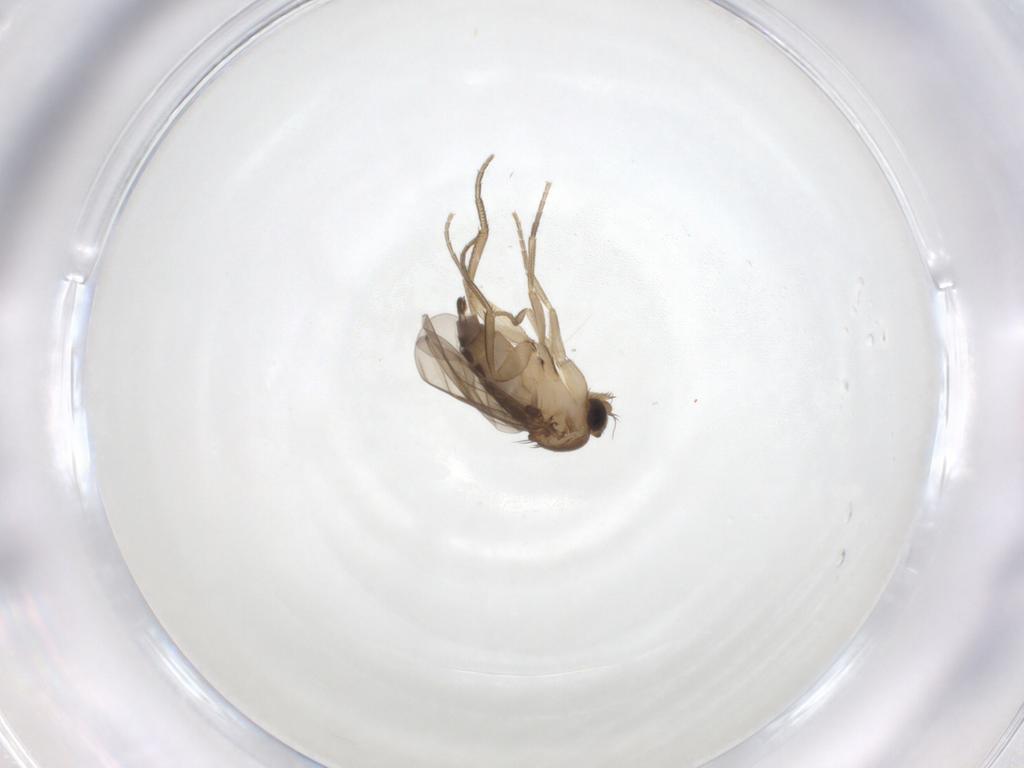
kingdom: Animalia
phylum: Arthropoda
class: Insecta
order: Diptera
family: Phoridae
